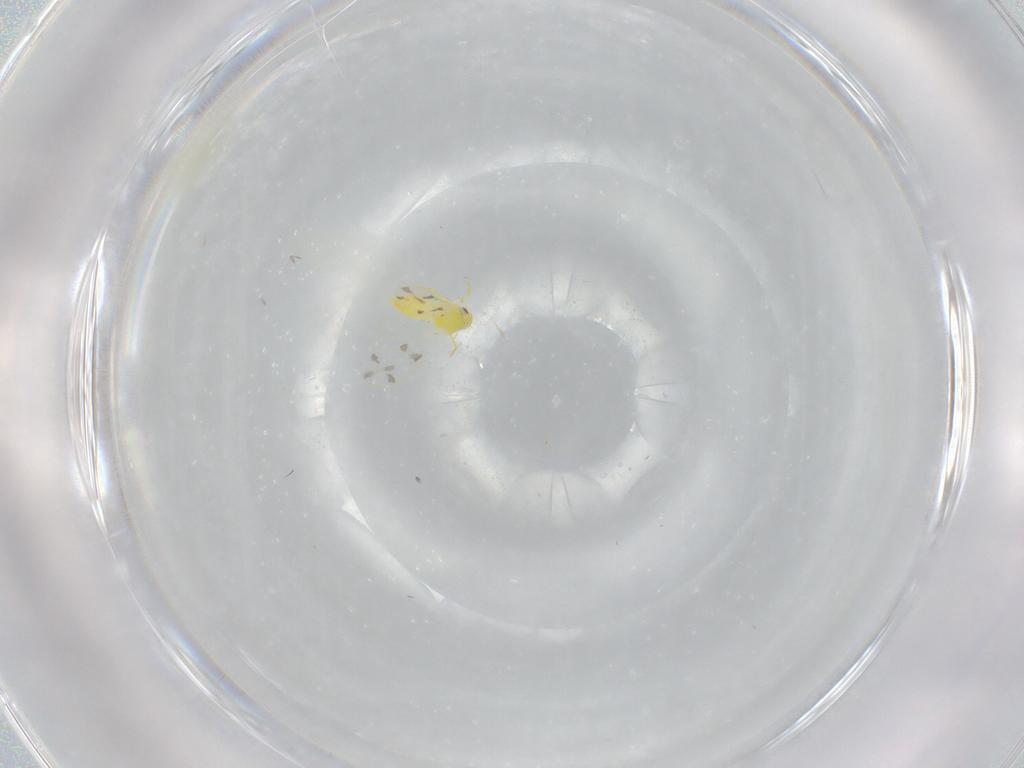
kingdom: Animalia
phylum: Arthropoda
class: Insecta
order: Hemiptera
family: Aleyrodidae
